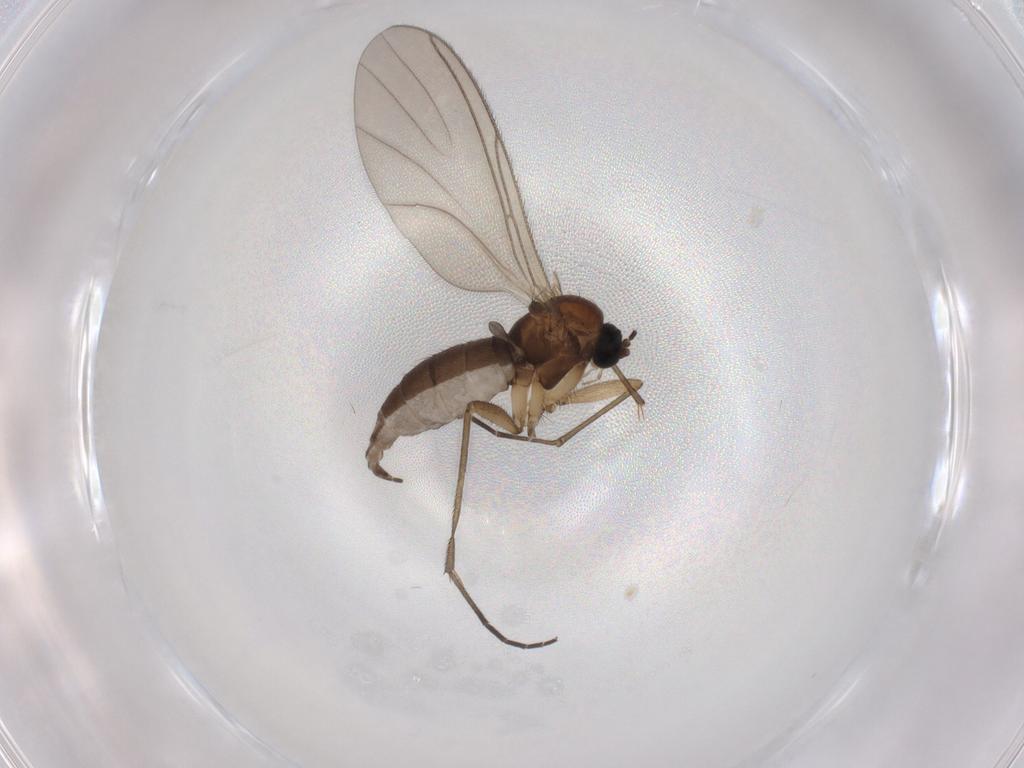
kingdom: Animalia
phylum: Arthropoda
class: Insecta
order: Diptera
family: Sciaridae
